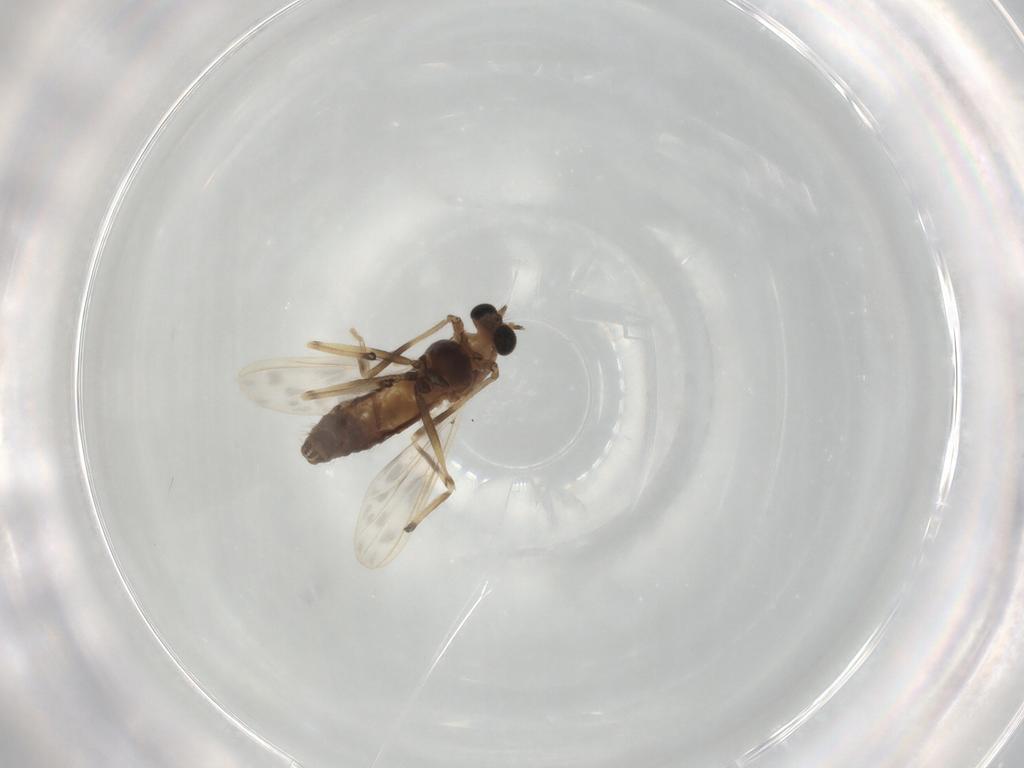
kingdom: Animalia
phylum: Arthropoda
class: Insecta
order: Diptera
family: Chironomidae
